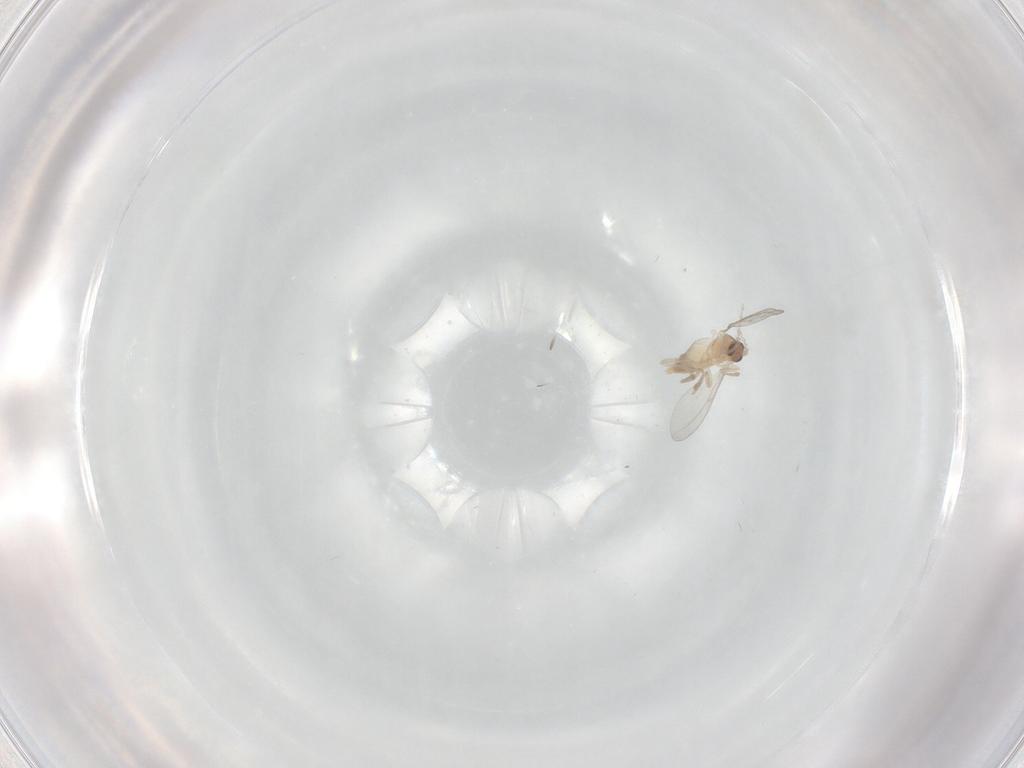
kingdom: Animalia
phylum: Arthropoda
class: Insecta
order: Diptera
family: Cecidomyiidae
